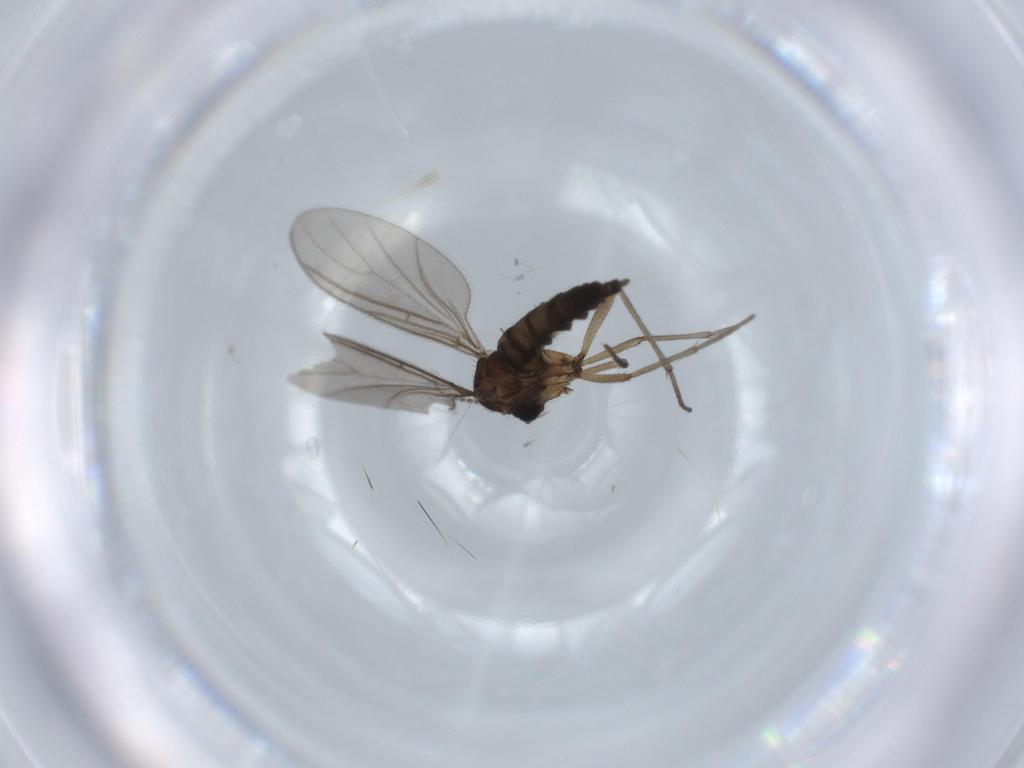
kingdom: Animalia
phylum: Arthropoda
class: Insecta
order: Diptera
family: Sciaridae
